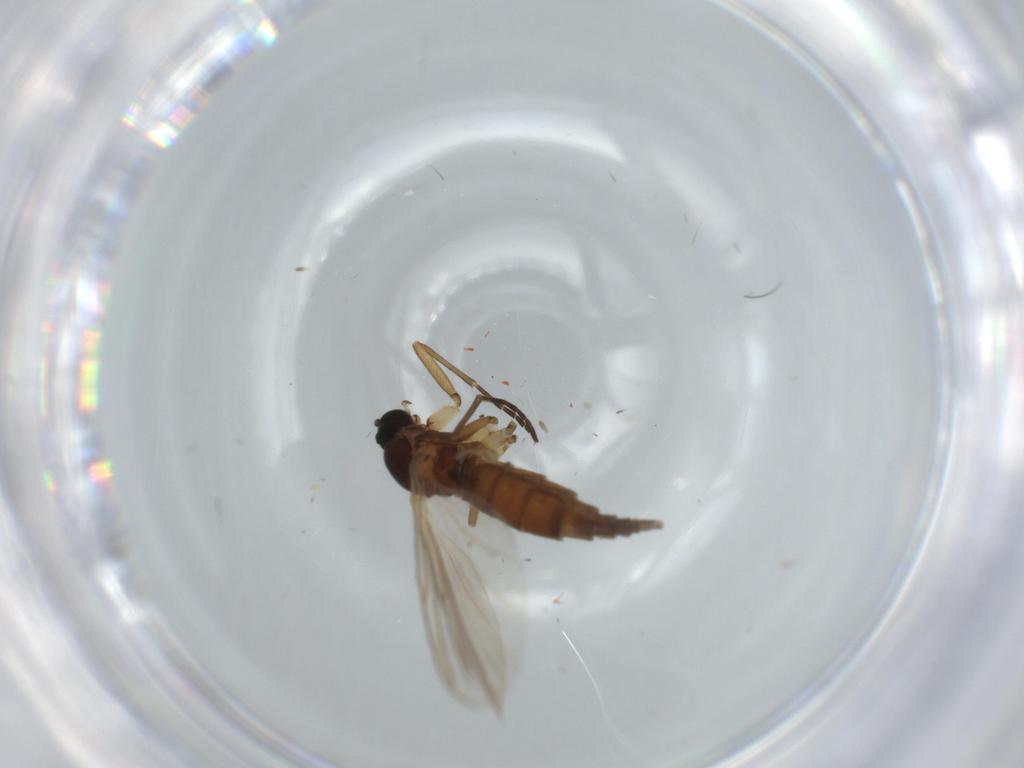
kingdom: Animalia
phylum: Arthropoda
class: Insecta
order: Diptera
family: Sciaridae
